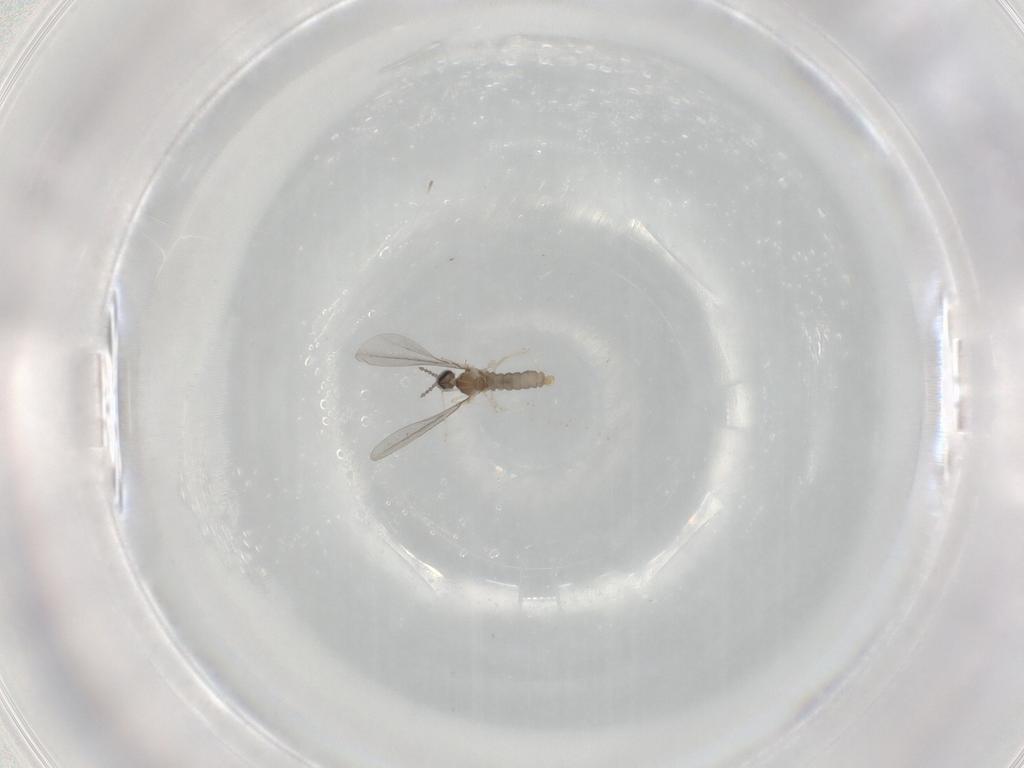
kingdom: Animalia
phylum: Arthropoda
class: Insecta
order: Diptera
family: Cecidomyiidae
